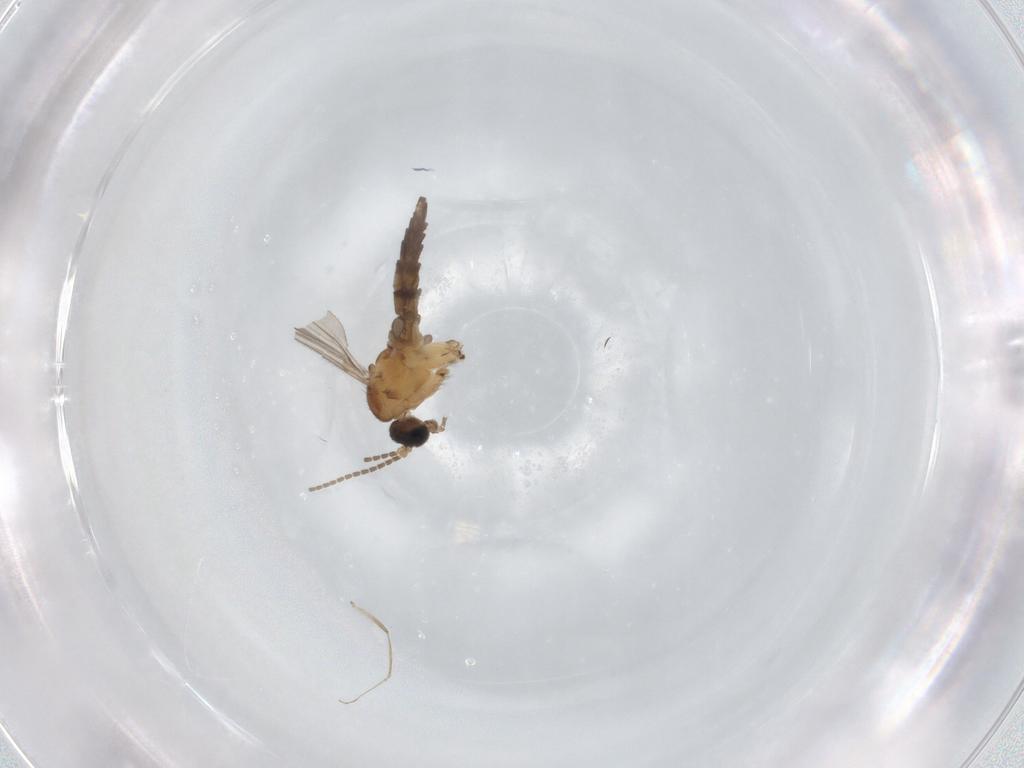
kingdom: Animalia
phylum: Arthropoda
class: Insecta
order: Diptera
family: Sciaridae
